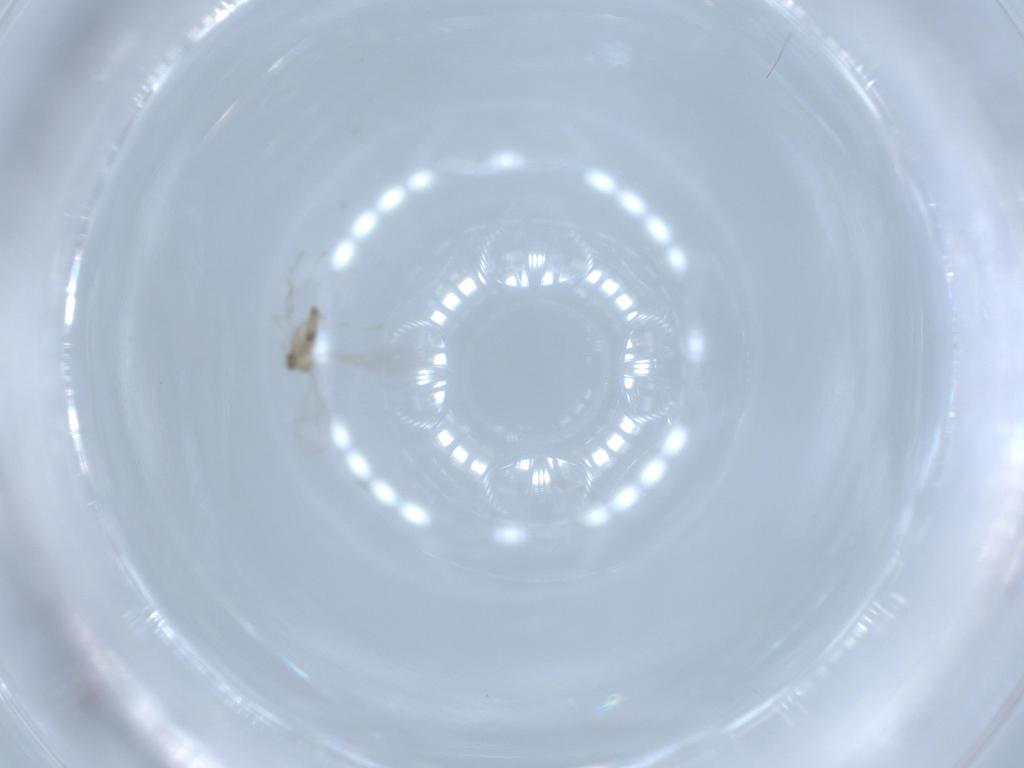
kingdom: Animalia
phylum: Arthropoda
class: Insecta
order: Diptera
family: Cecidomyiidae
